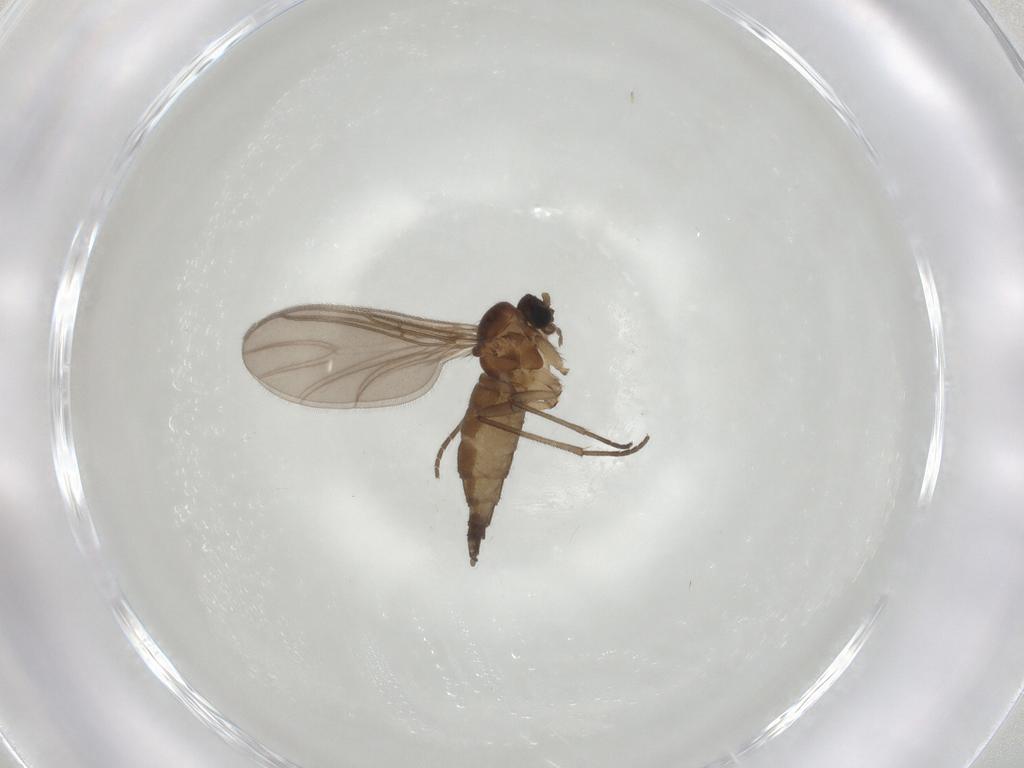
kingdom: Animalia
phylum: Arthropoda
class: Insecta
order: Diptera
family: Sciaridae
